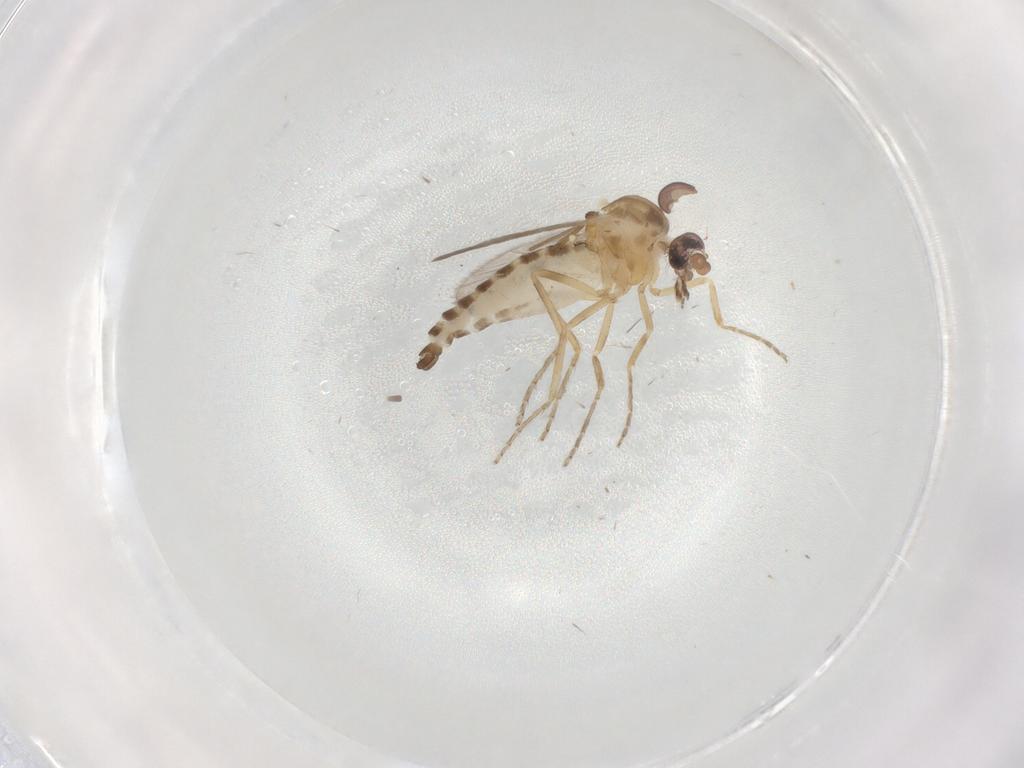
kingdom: Animalia
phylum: Arthropoda
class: Insecta
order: Diptera
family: Ceratopogonidae
